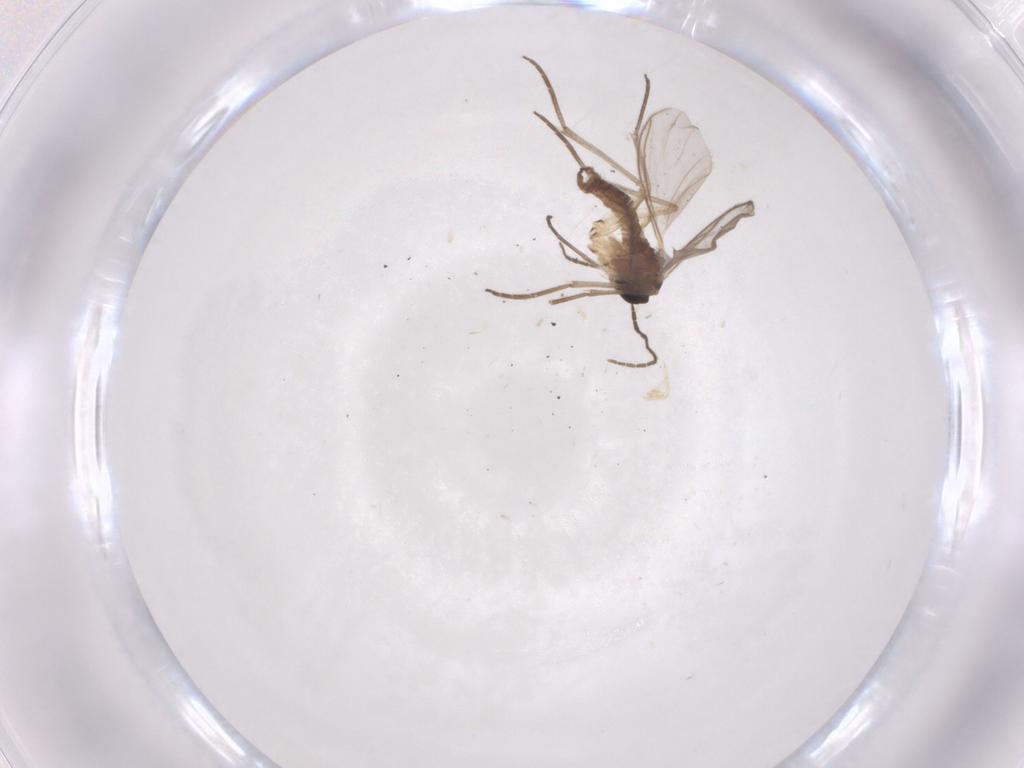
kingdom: Animalia
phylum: Arthropoda
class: Insecta
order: Diptera
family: Sciaridae
